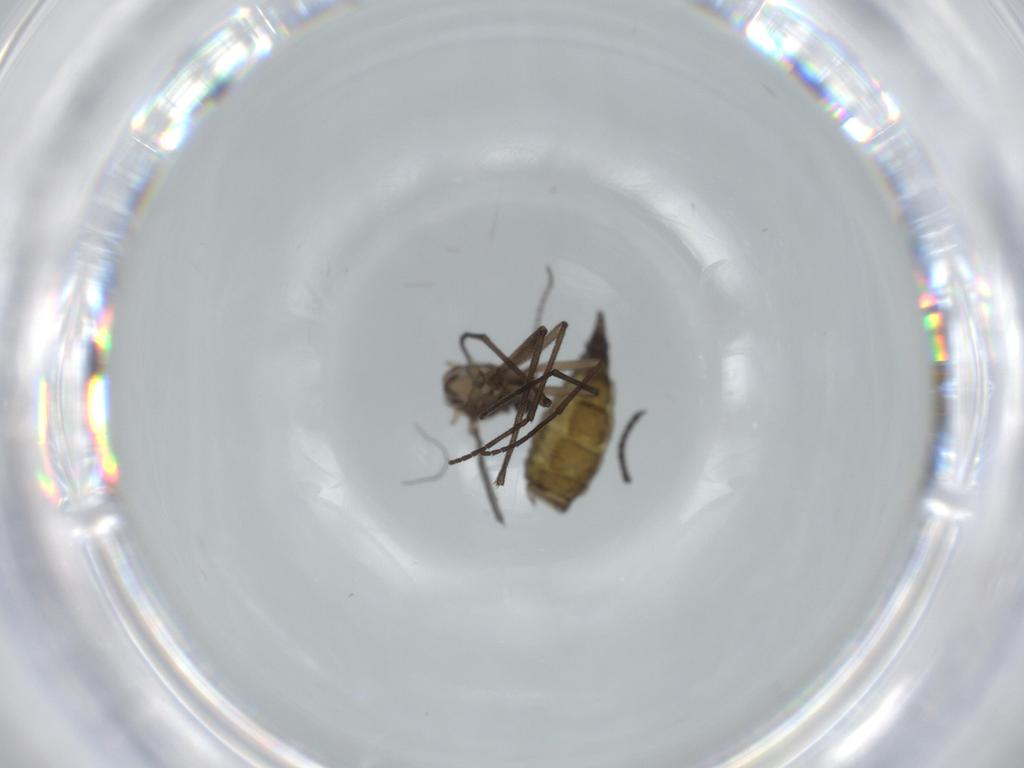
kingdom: Animalia
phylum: Arthropoda
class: Insecta
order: Diptera
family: Sciaridae
